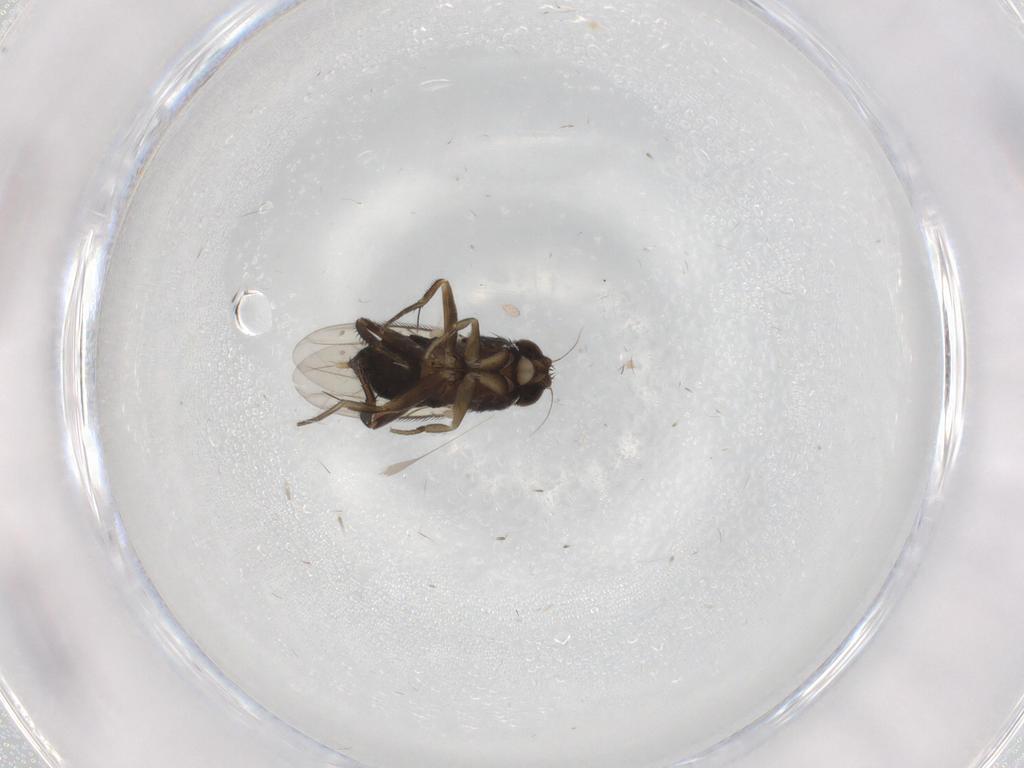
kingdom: Animalia
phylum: Arthropoda
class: Insecta
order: Diptera
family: Phoridae
